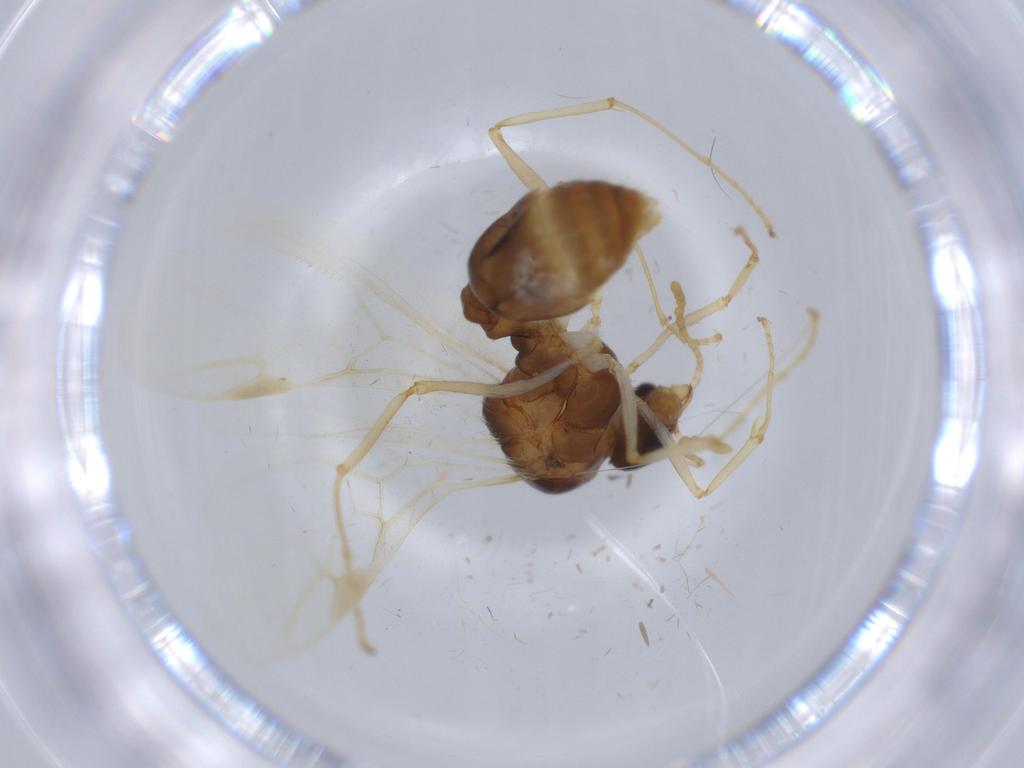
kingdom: Animalia
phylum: Arthropoda
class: Insecta
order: Hymenoptera
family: Formicidae
